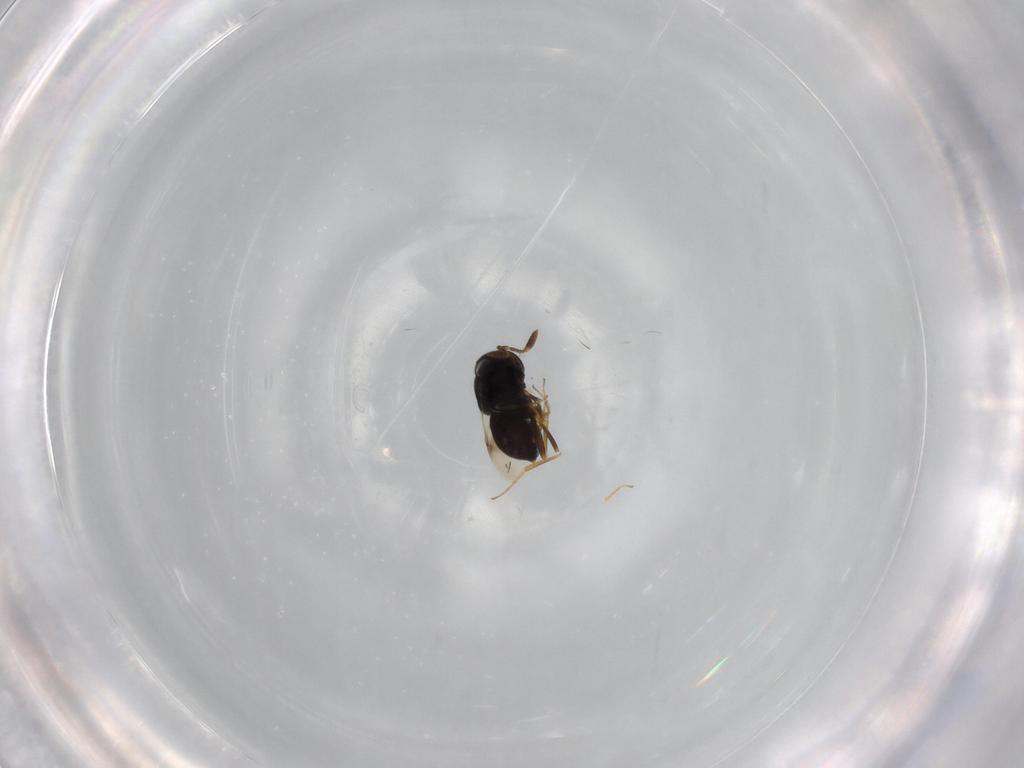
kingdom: Animalia
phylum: Arthropoda
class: Insecta
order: Hymenoptera
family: Scelionidae
